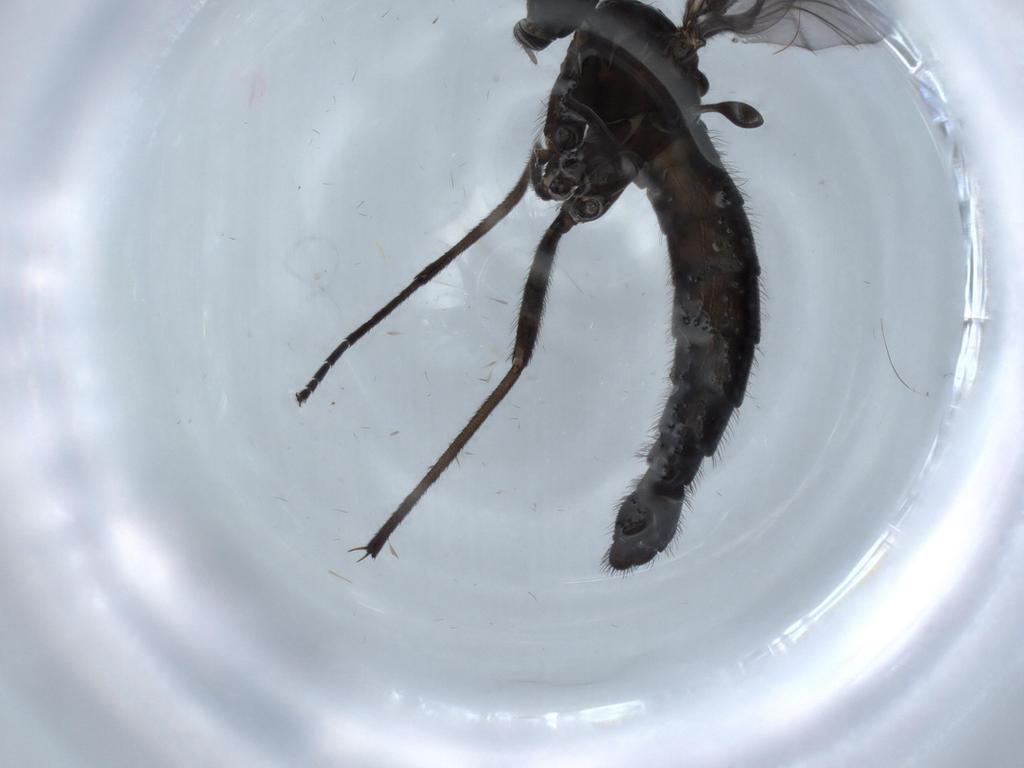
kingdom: Animalia
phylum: Arthropoda
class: Insecta
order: Diptera
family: Sciaridae
